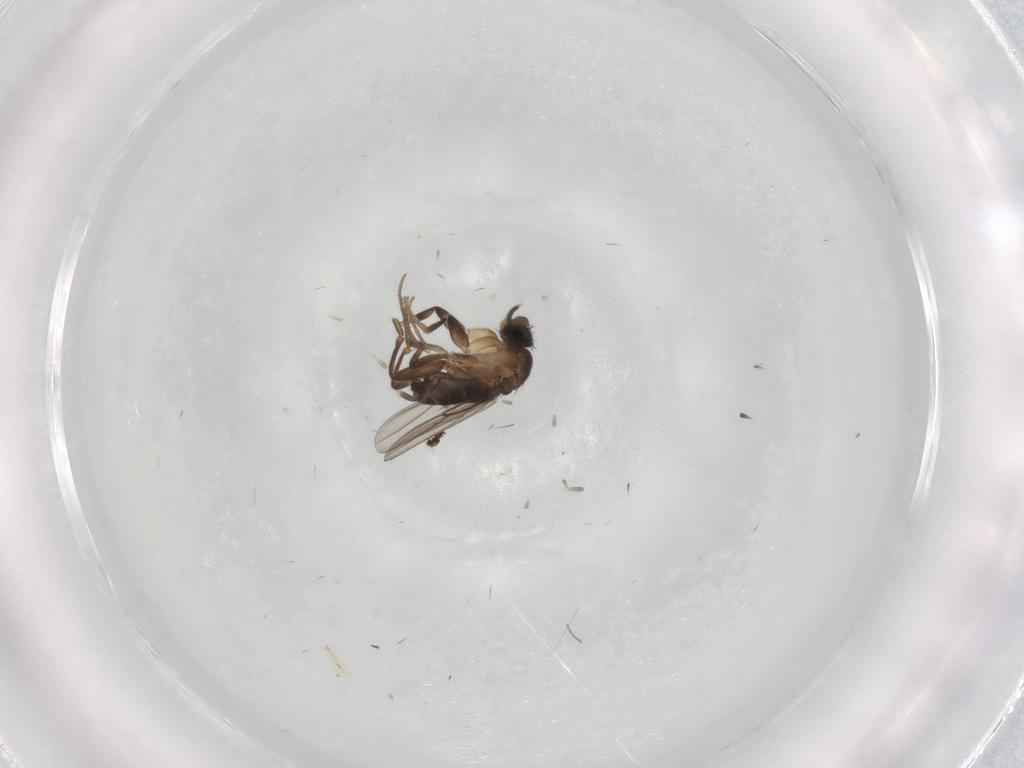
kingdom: Animalia
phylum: Arthropoda
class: Insecta
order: Diptera
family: Phoridae
